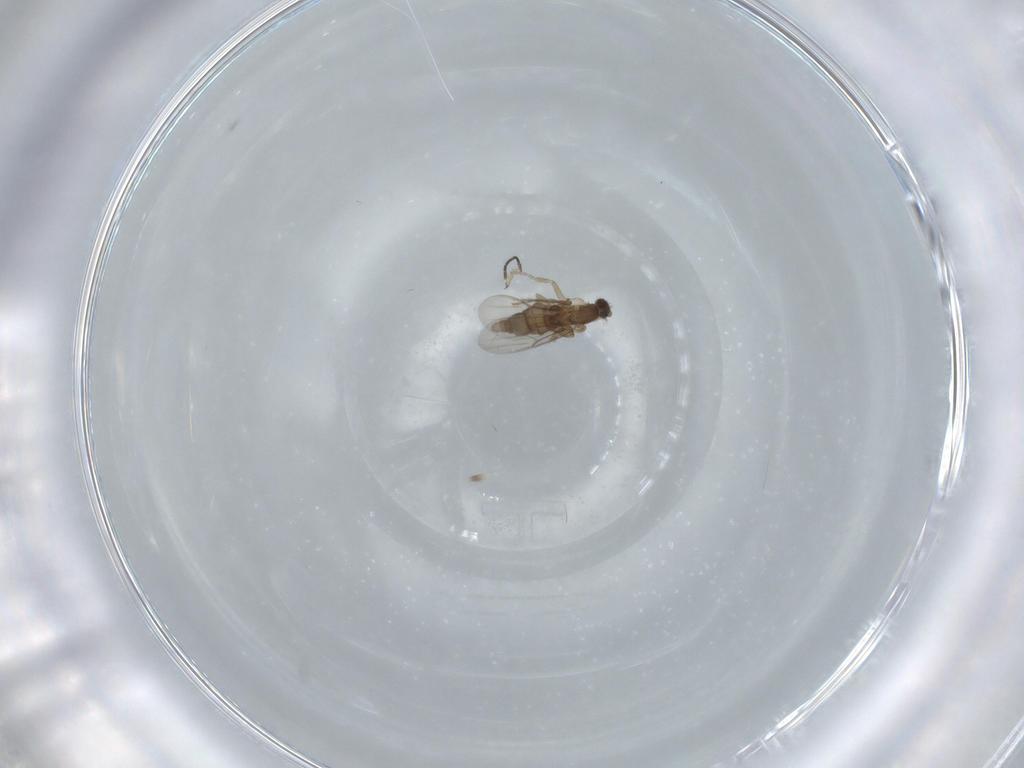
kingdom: Animalia
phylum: Arthropoda
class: Insecta
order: Diptera
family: Phoridae
